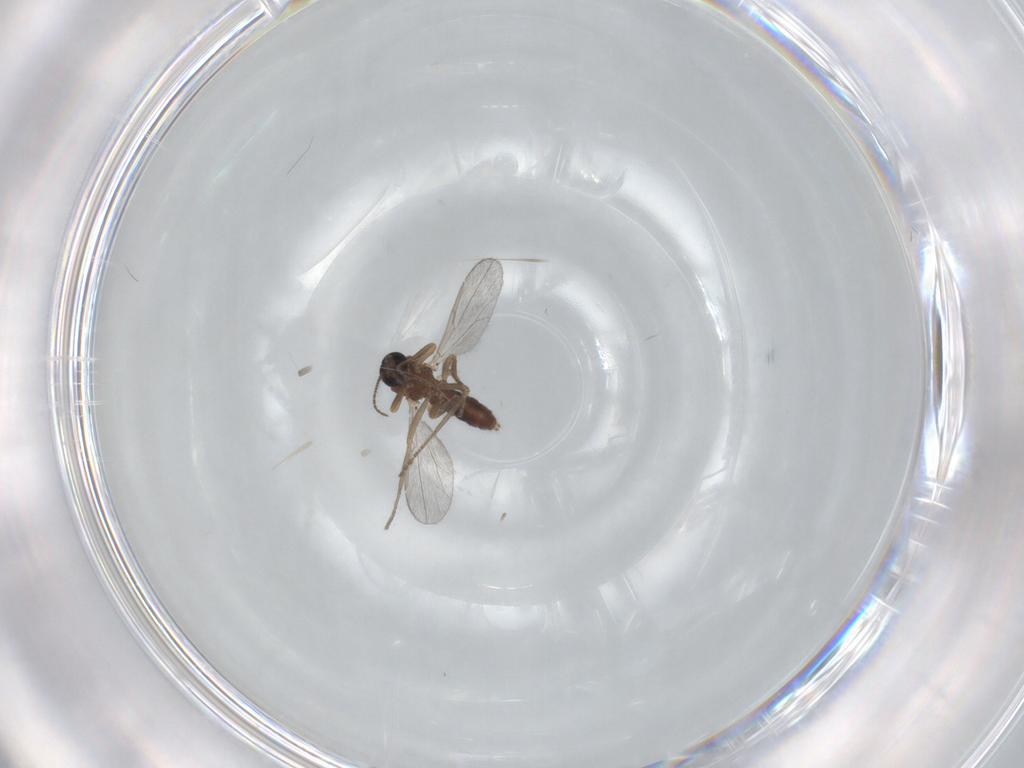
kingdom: Animalia
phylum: Arthropoda
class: Insecta
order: Diptera
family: Ceratopogonidae
